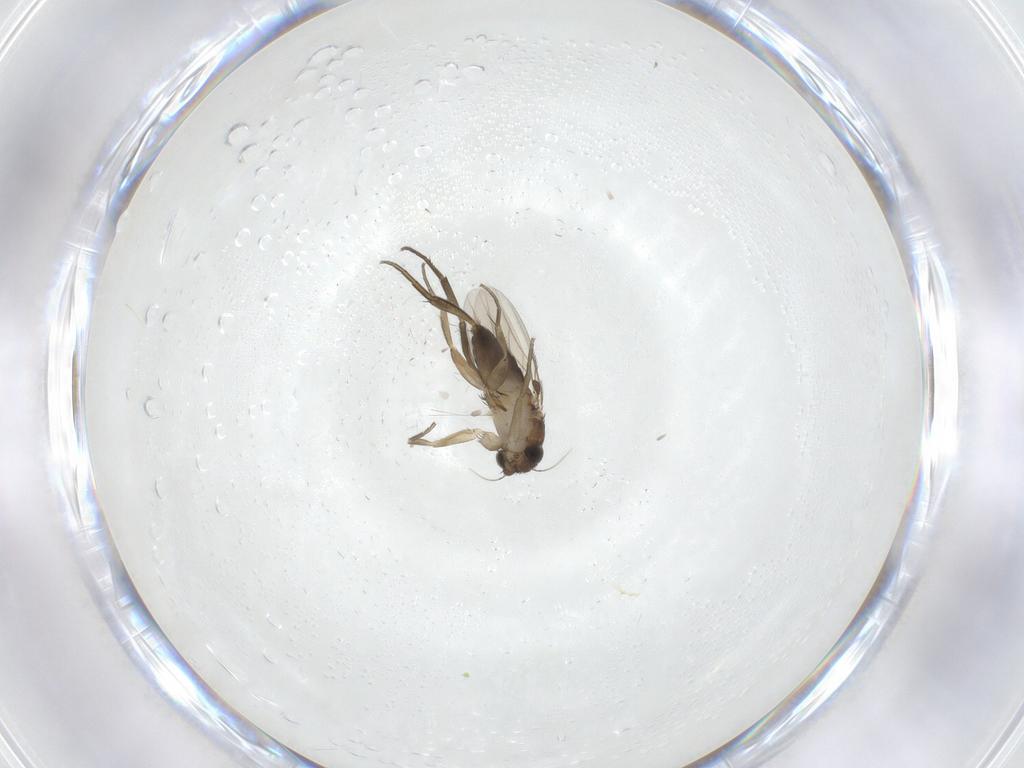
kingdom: Animalia
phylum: Arthropoda
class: Insecta
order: Diptera
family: Phoridae
